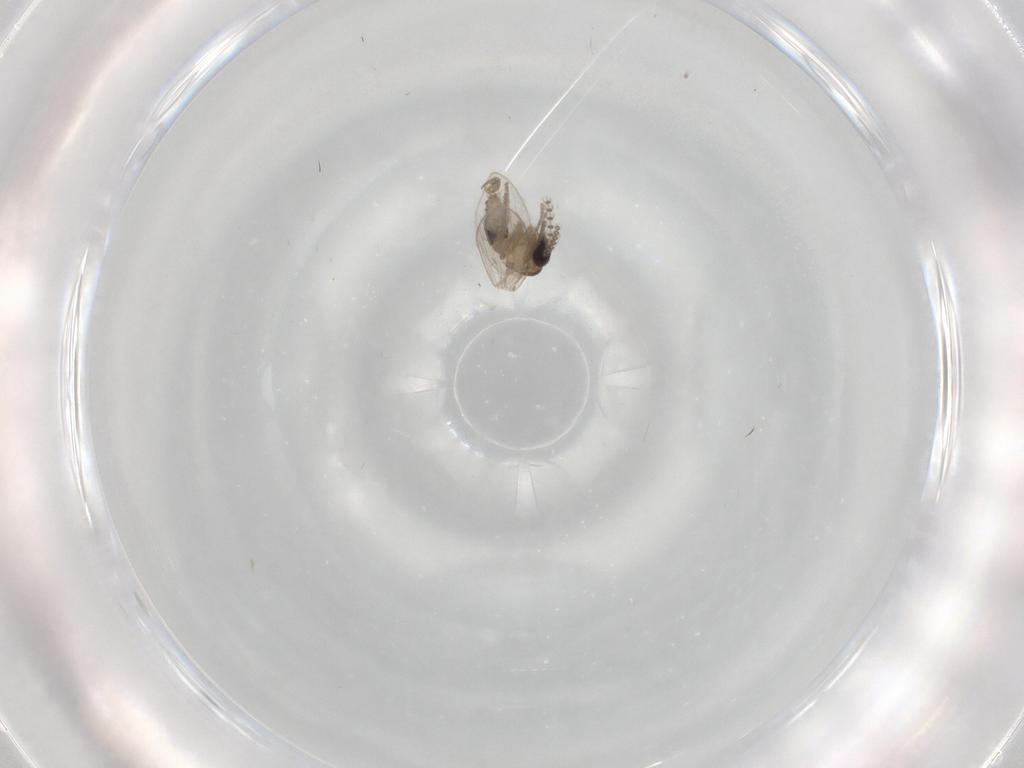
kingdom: Animalia
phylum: Arthropoda
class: Insecta
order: Diptera
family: Psychodidae
